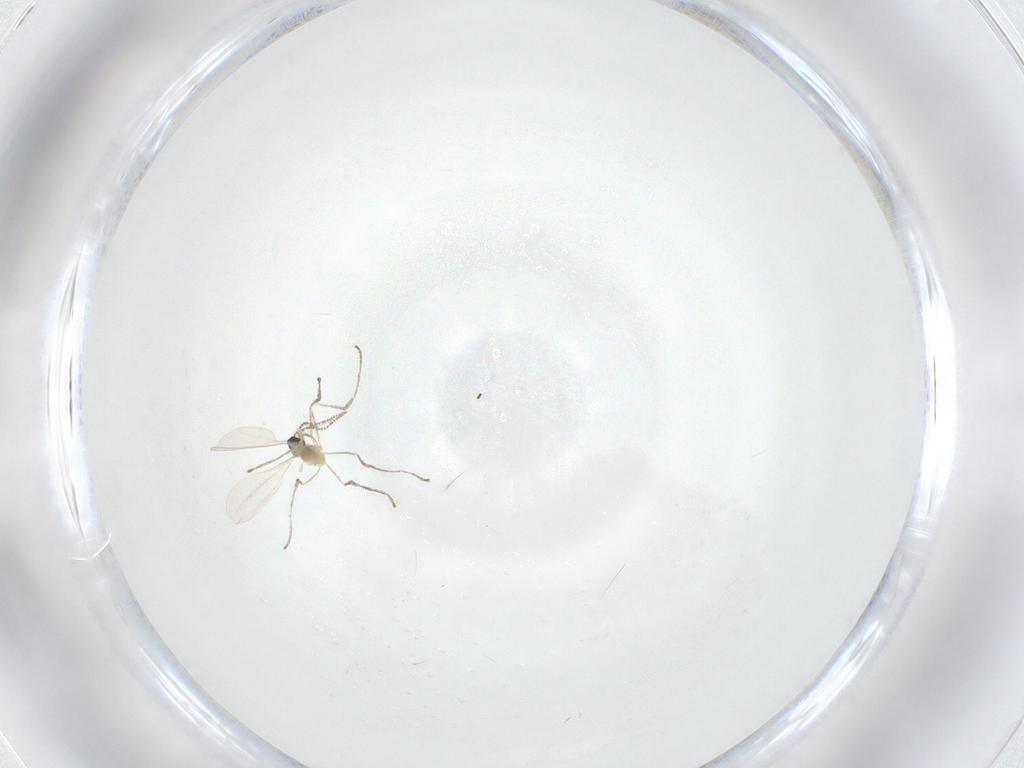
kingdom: Animalia
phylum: Arthropoda
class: Insecta
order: Diptera
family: Cecidomyiidae
